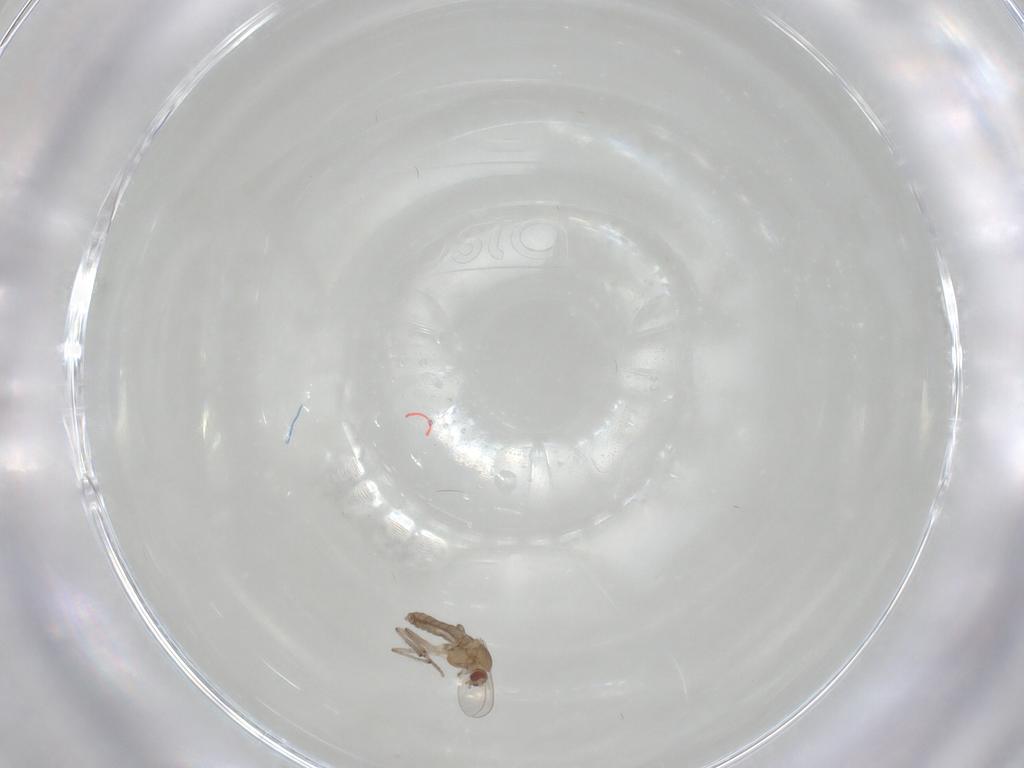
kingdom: Animalia
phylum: Arthropoda
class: Insecta
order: Diptera
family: Chironomidae
